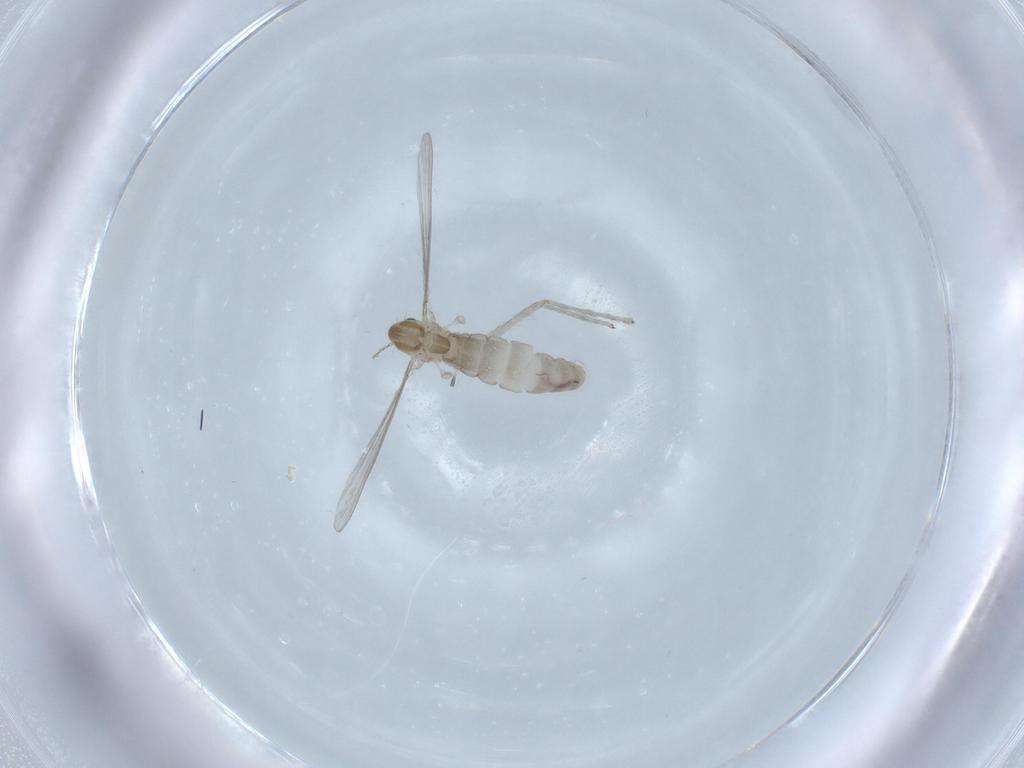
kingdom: Animalia
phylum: Arthropoda
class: Insecta
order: Diptera
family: Chironomidae
